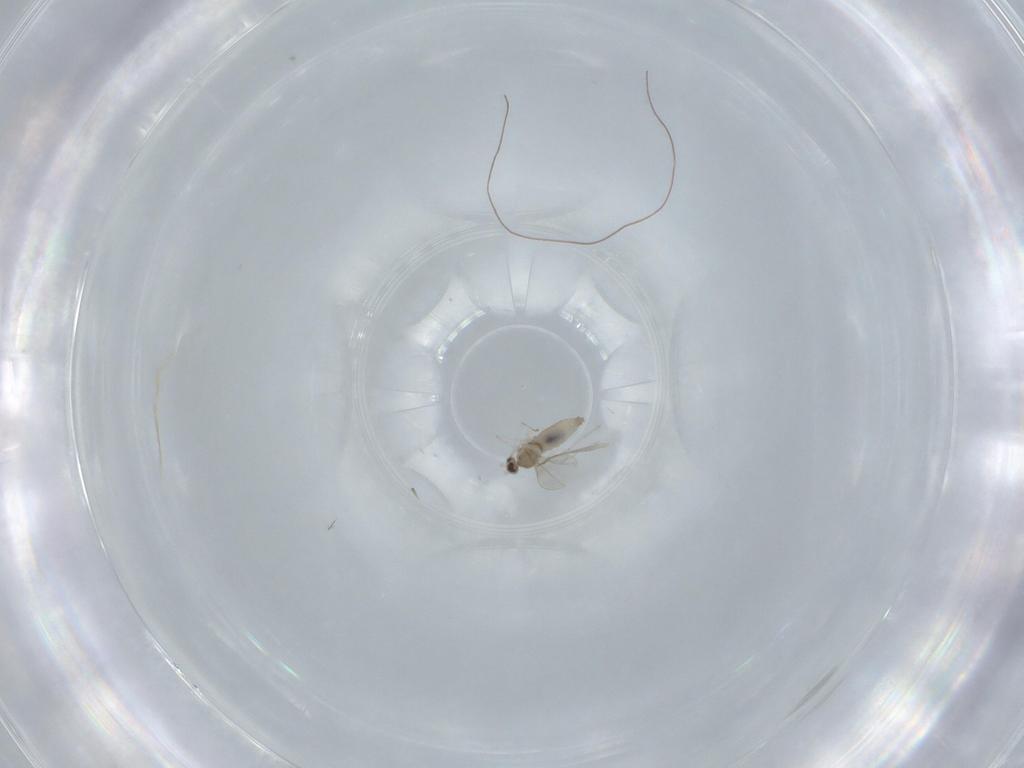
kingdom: Animalia
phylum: Arthropoda
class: Insecta
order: Diptera
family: Cecidomyiidae
